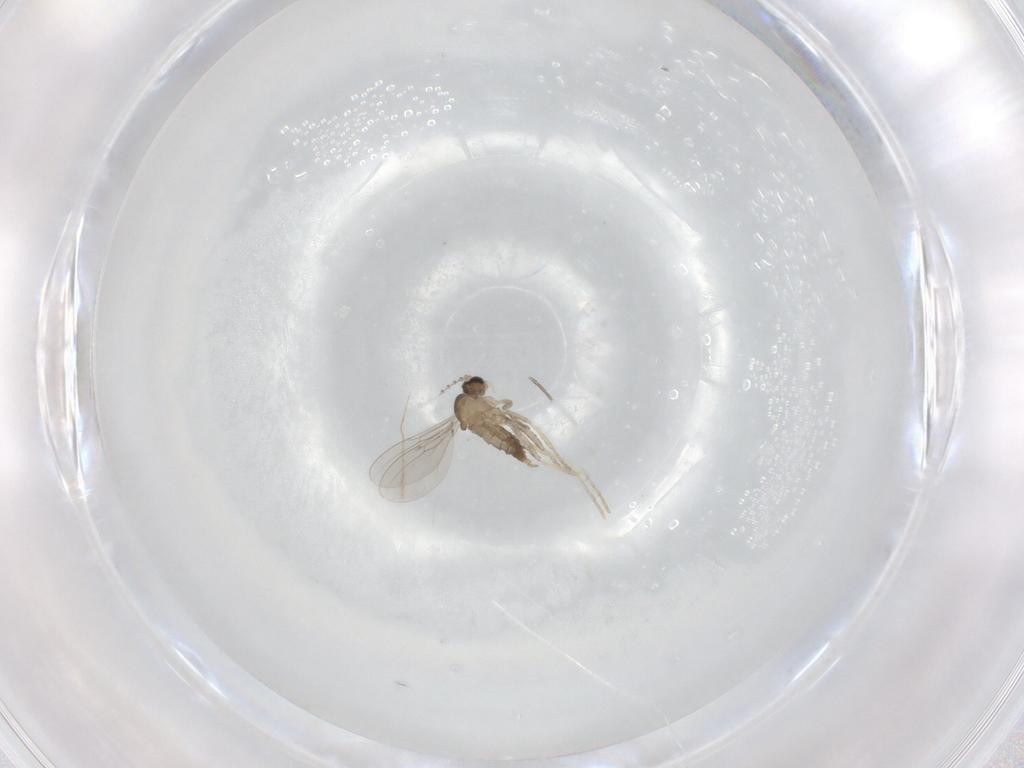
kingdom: Animalia
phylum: Arthropoda
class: Insecta
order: Diptera
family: Cecidomyiidae
